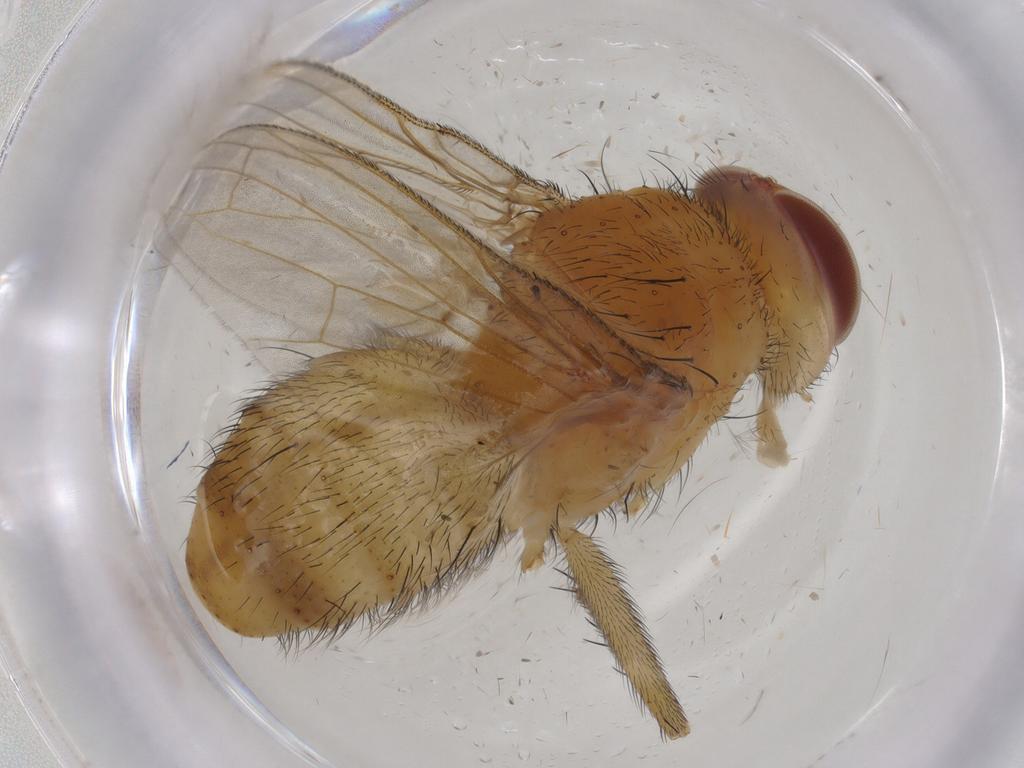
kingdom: Animalia
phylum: Arthropoda
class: Insecta
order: Diptera
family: Tachinidae
